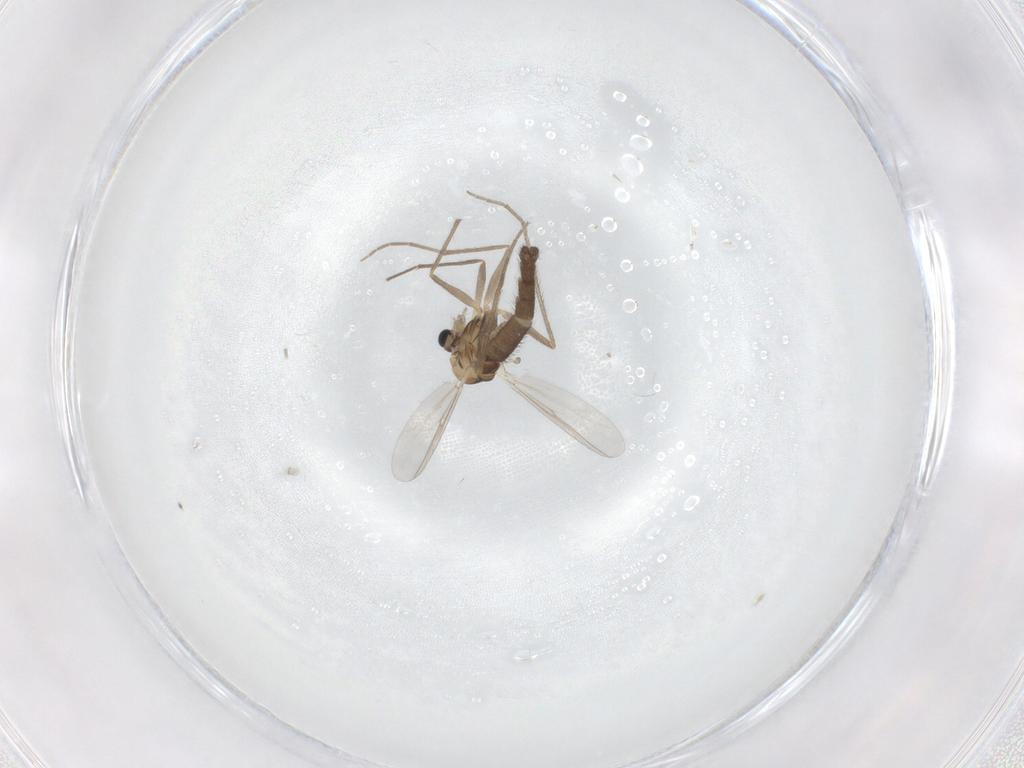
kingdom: Animalia
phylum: Arthropoda
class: Insecta
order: Diptera
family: Chironomidae
